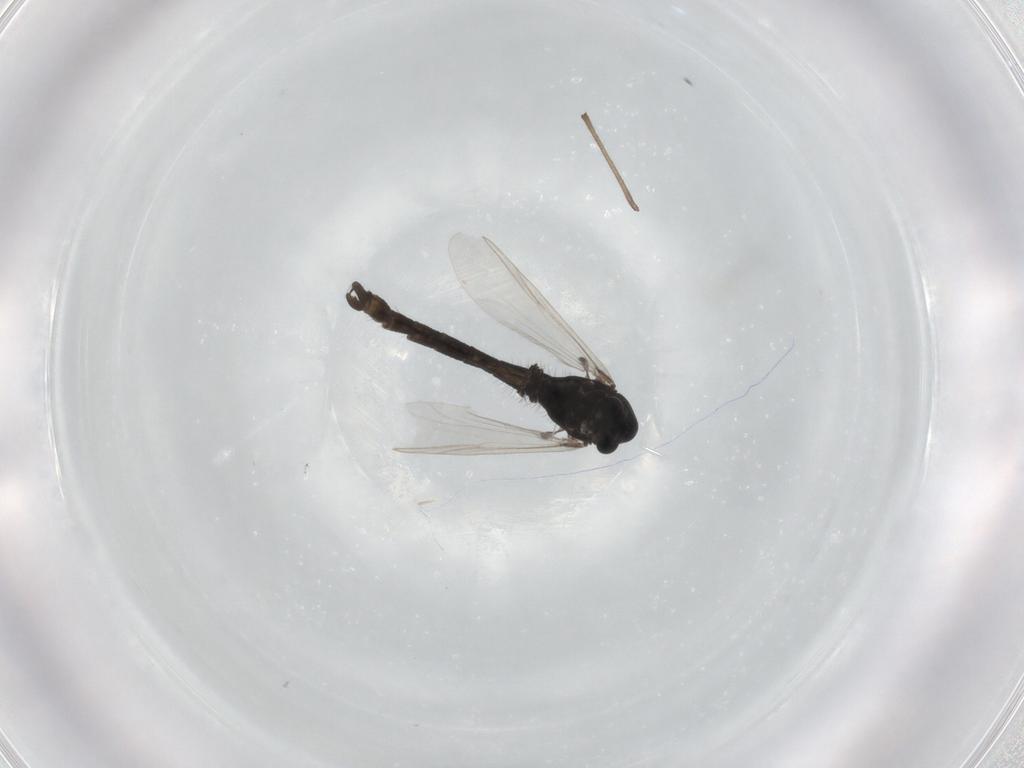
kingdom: Animalia
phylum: Arthropoda
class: Insecta
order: Diptera
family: Chironomidae
